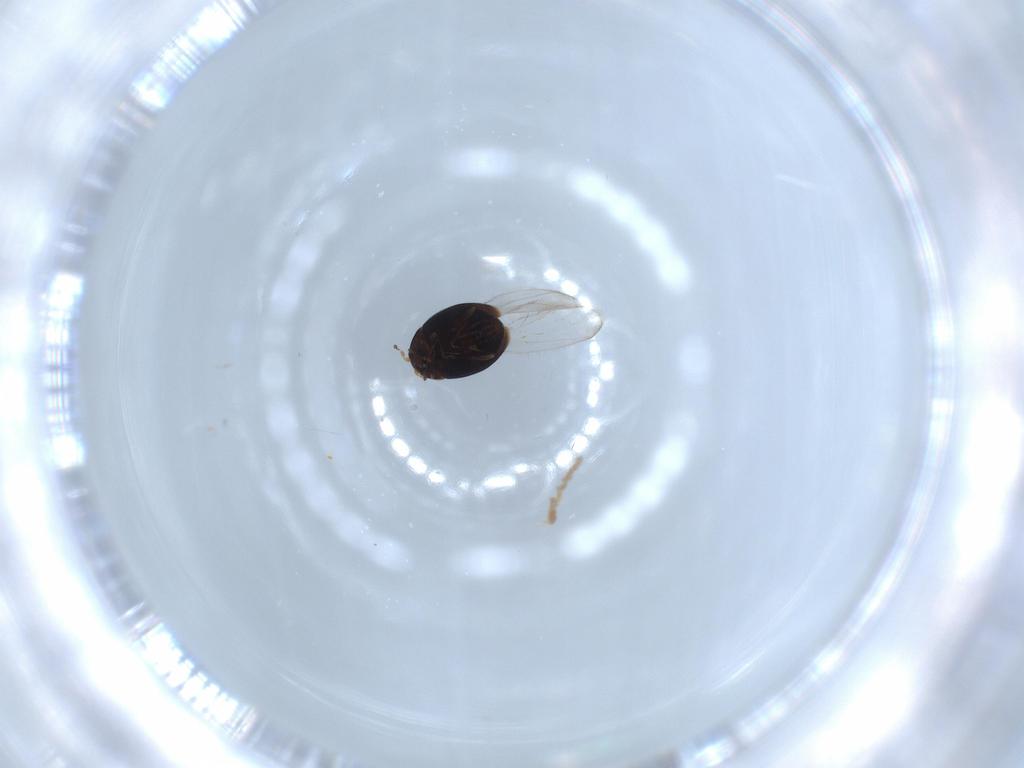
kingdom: Animalia
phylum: Arthropoda
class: Insecta
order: Coleoptera
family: Corylophidae
